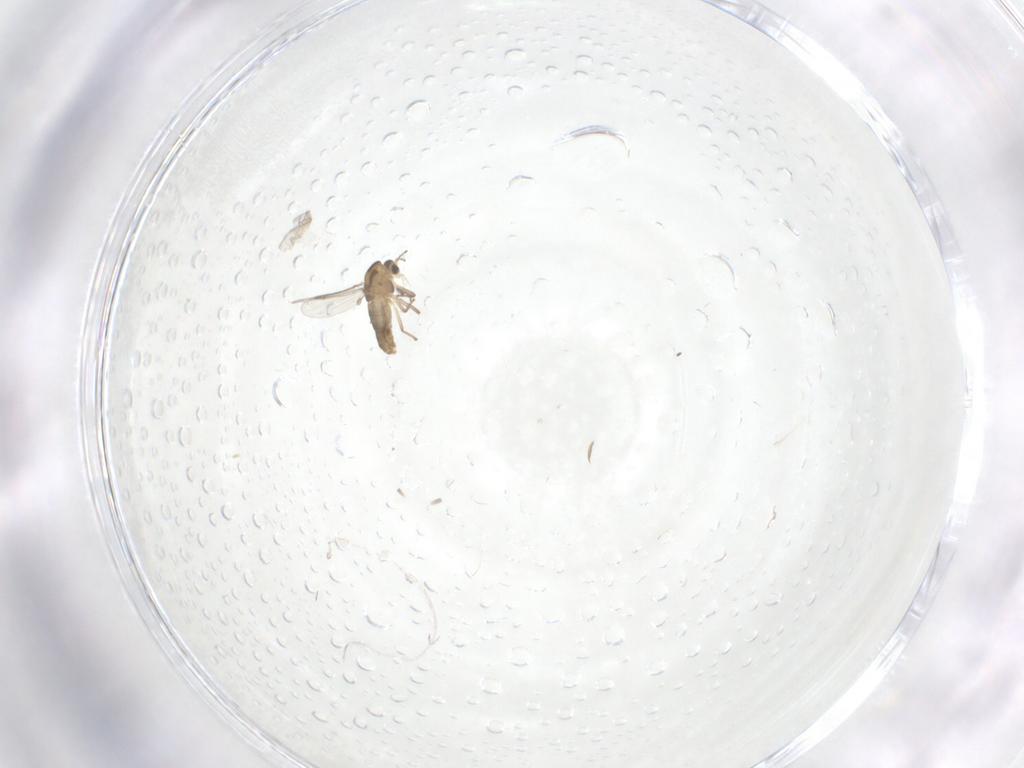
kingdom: Animalia
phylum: Arthropoda
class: Insecta
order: Diptera
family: Chironomidae
